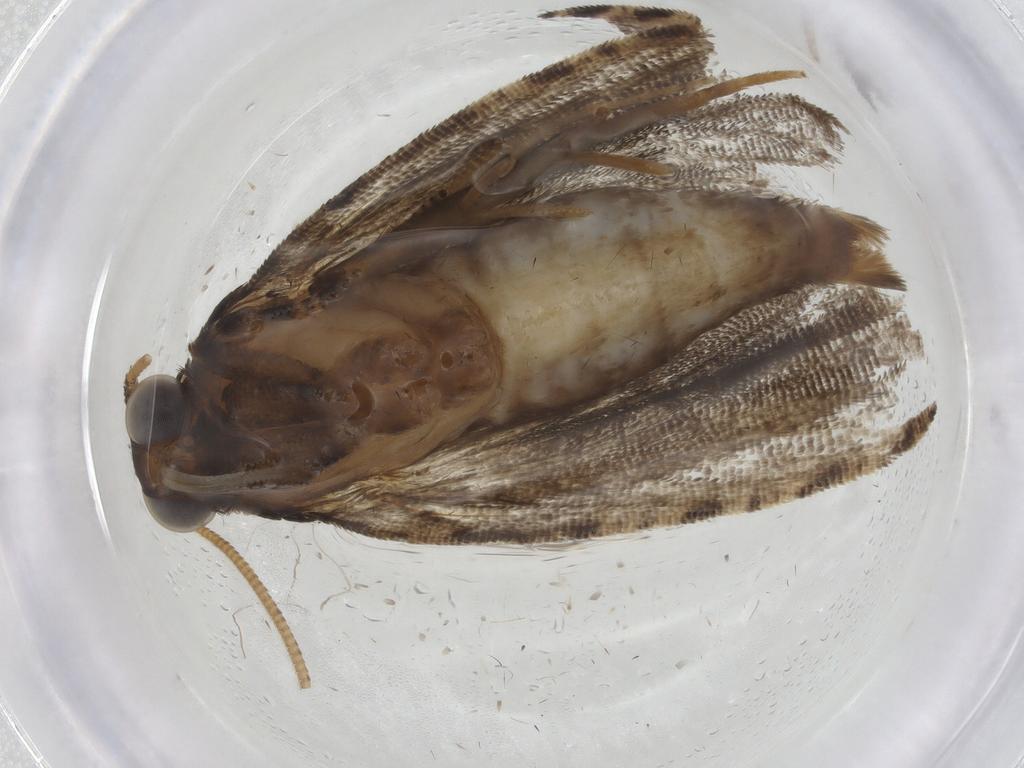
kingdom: Animalia
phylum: Arthropoda
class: Insecta
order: Lepidoptera
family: Tortricidae
